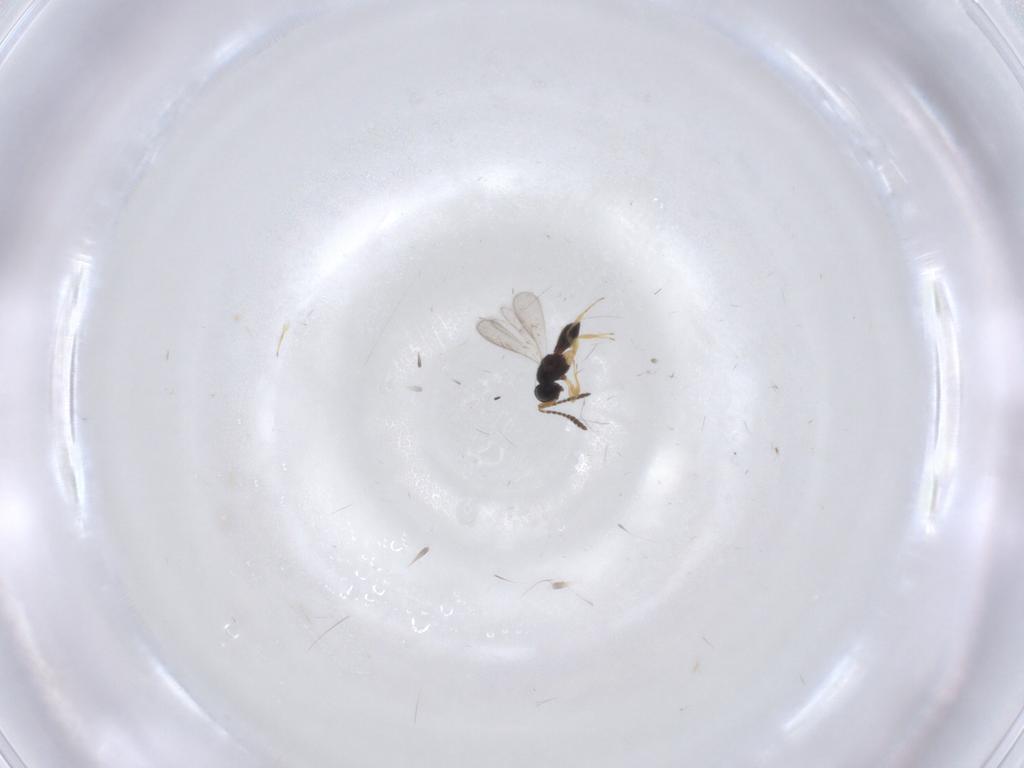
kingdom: Animalia
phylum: Arthropoda
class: Insecta
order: Hymenoptera
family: Scelionidae
